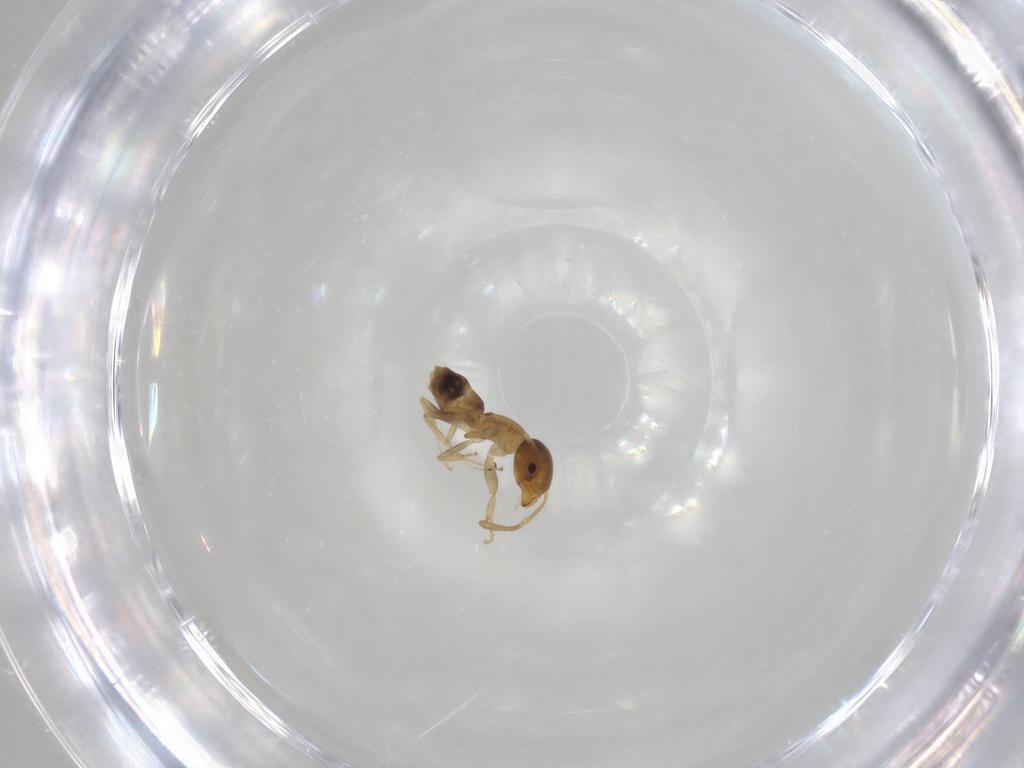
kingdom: Animalia
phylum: Arthropoda
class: Insecta
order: Hymenoptera
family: Formicidae
